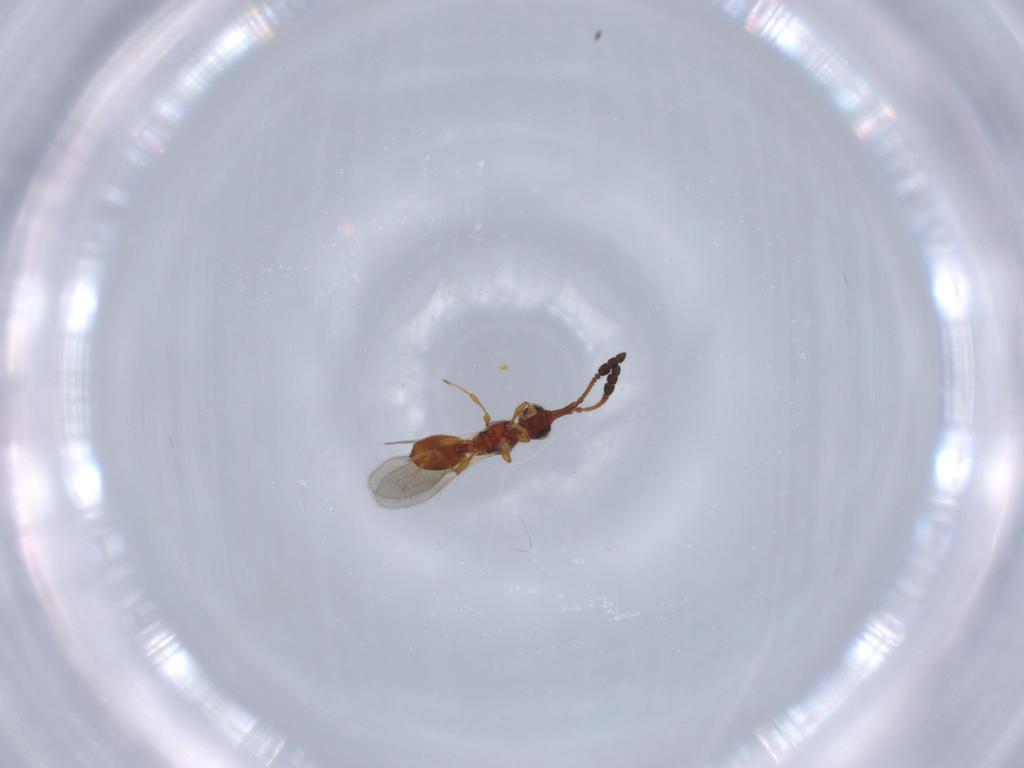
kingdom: Animalia
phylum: Arthropoda
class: Insecta
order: Hymenoptera
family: Diapriidae
